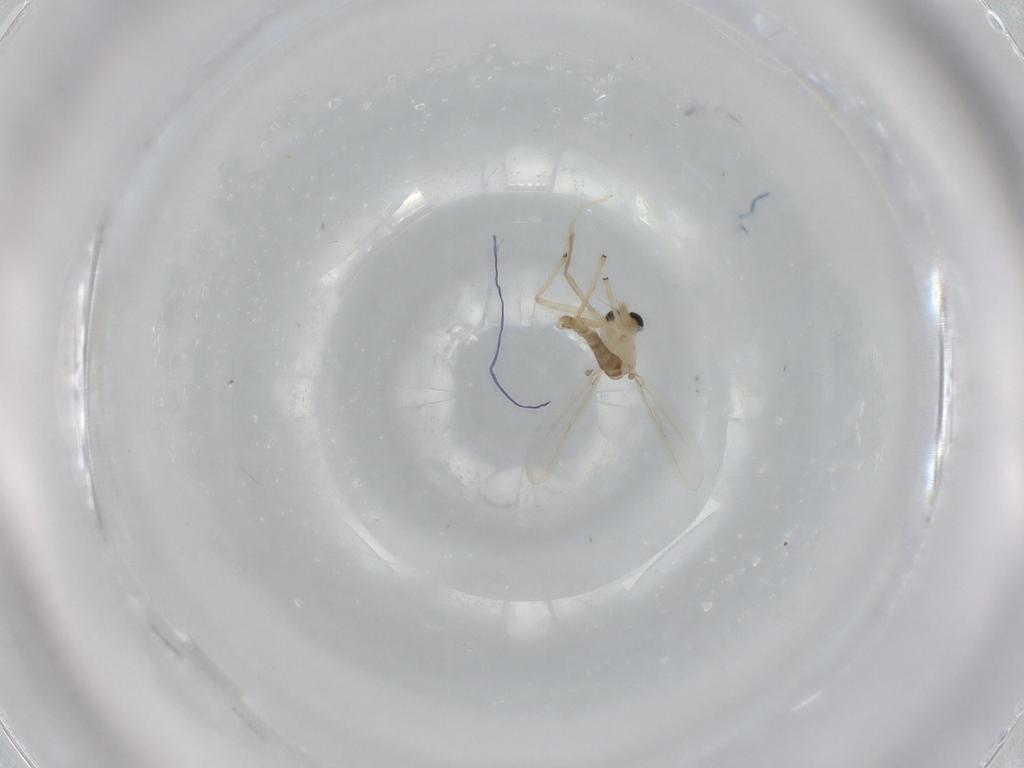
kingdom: Animalia
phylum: Arthropoda
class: Insecta
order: Diptera
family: Chironomidae
